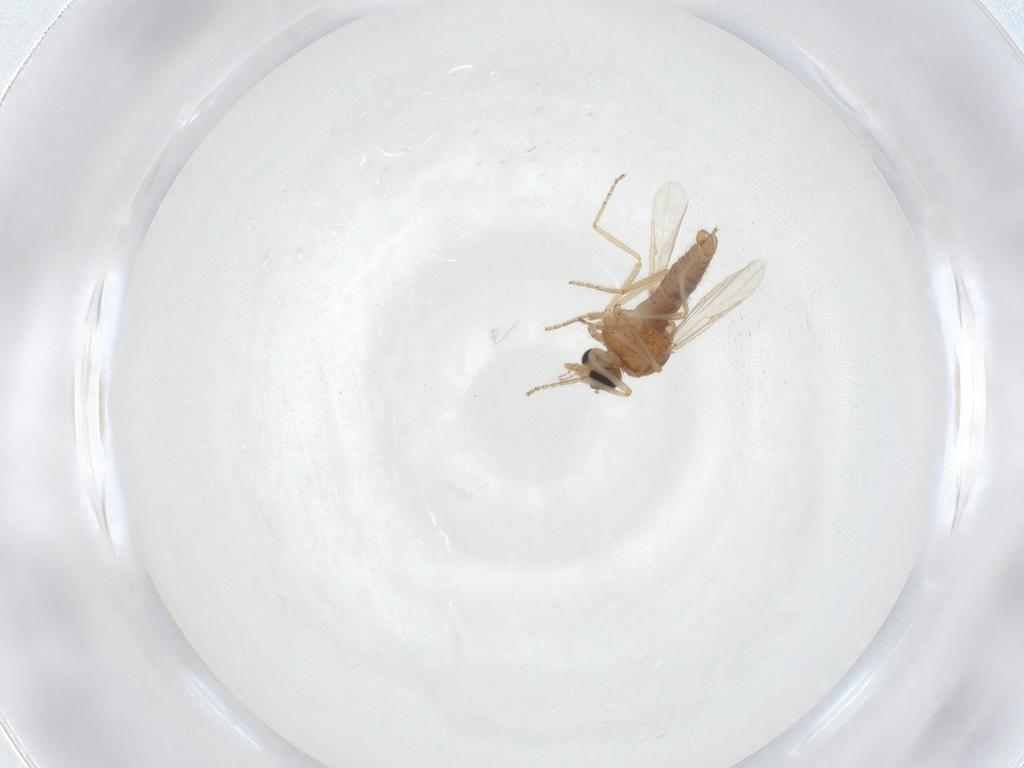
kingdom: Animalia
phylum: Arthropoda
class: Insecta
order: Diptera
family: Ceratopogonidae
